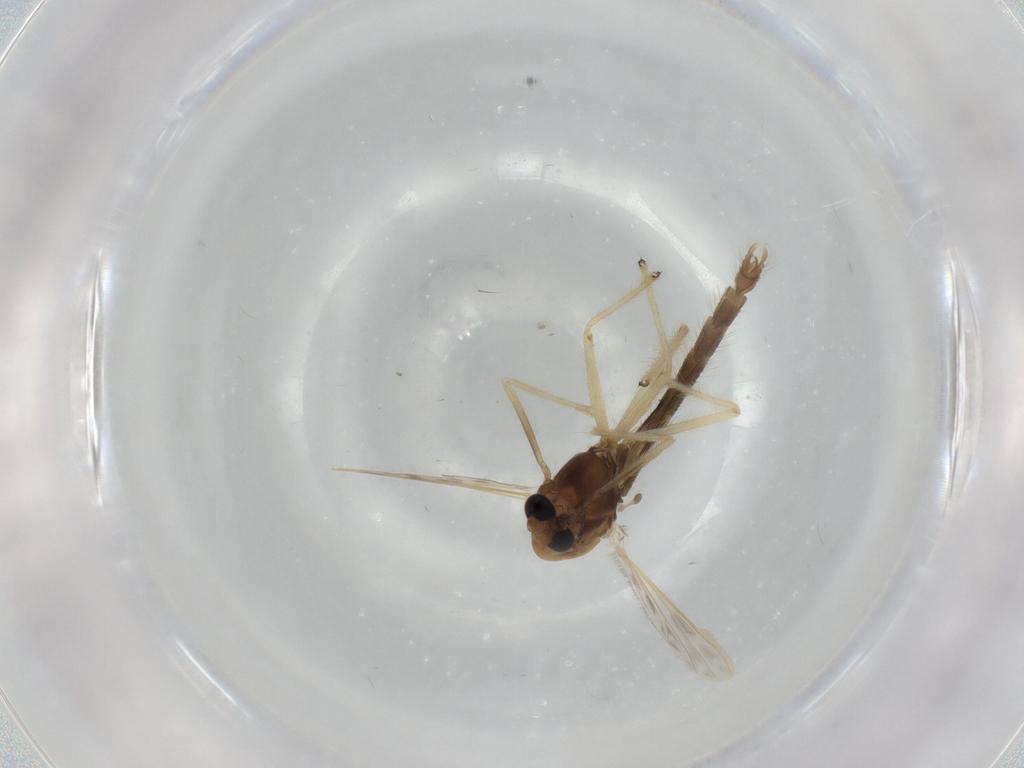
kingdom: Animalia
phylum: Arthropoda
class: Insecta
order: Diptera
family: Chironomidae
